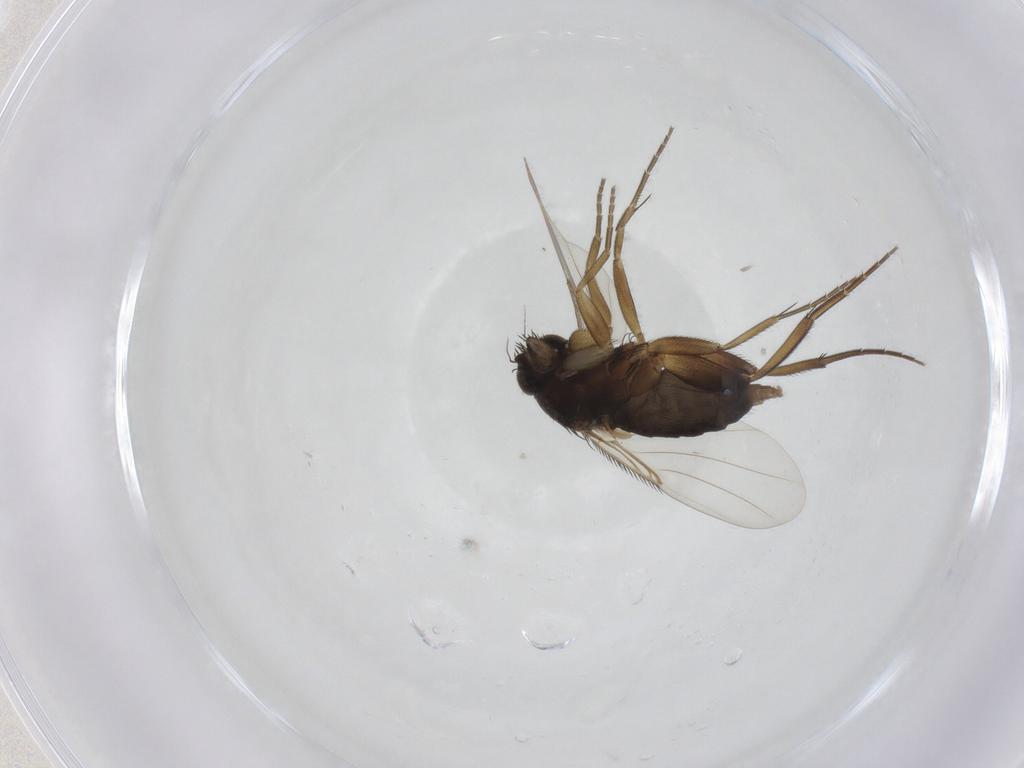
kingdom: Animalia
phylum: Arthropoda
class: Insecta
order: Diptera
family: Phoridae
